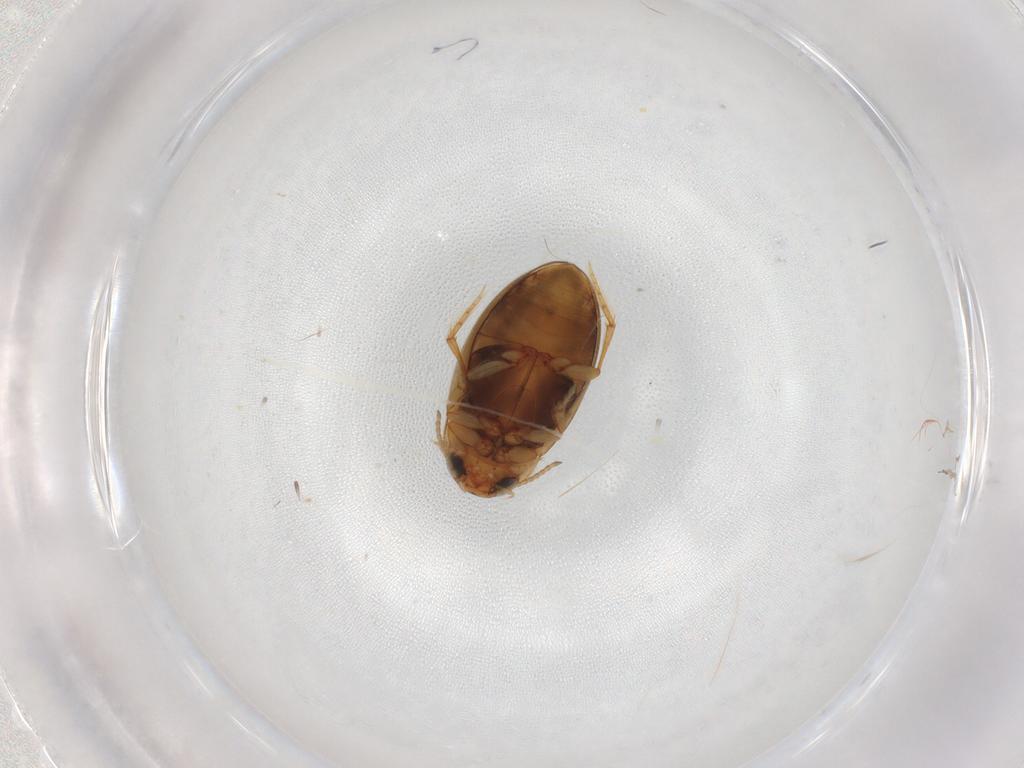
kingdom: Animalia
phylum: Arthropoda
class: Insecta
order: Coleoptera
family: Dytiscidae
